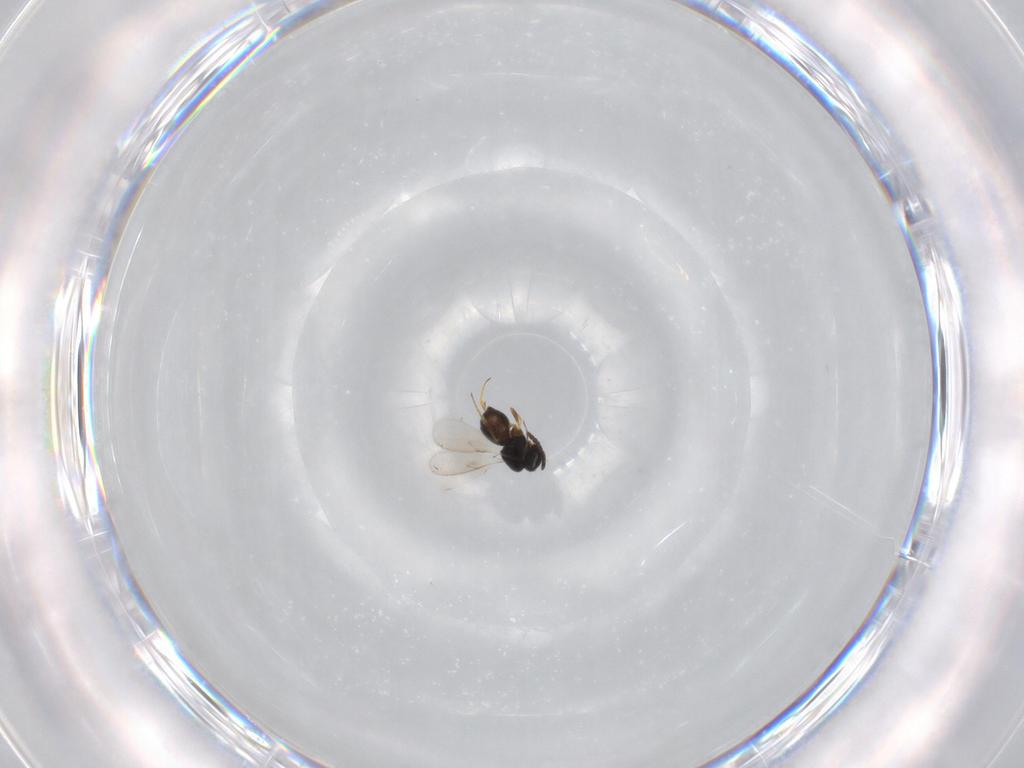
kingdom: Animalia
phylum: Arthropoda
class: Insecta
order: Hymenoptera
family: Scelionidae
